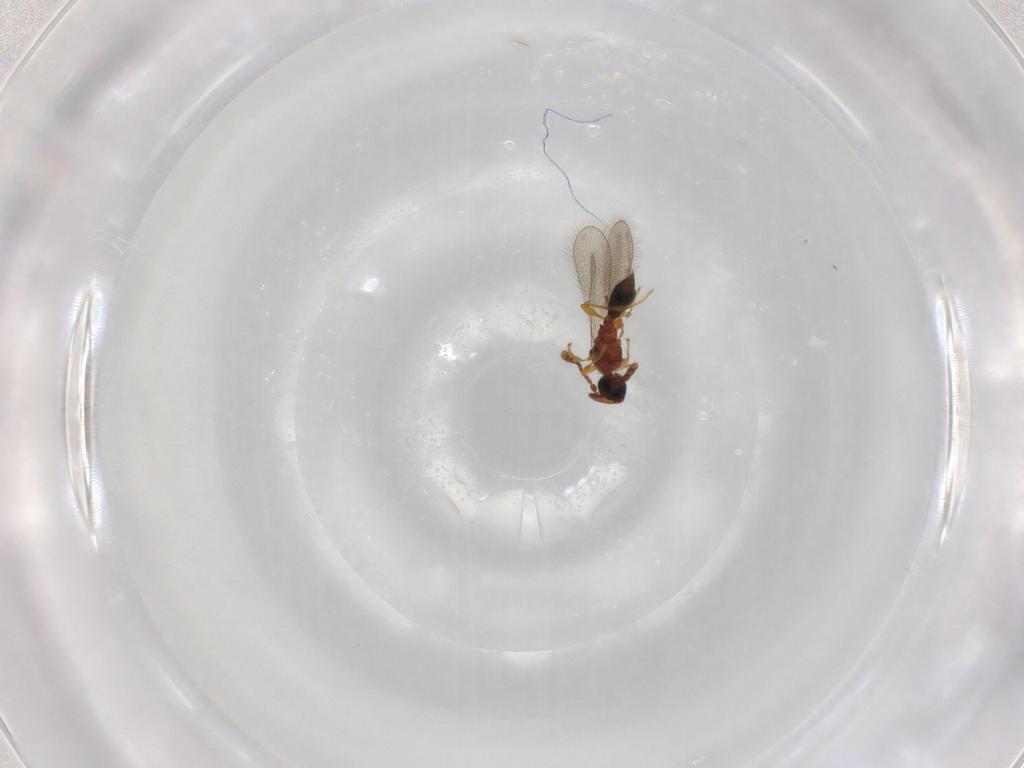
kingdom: Animalia
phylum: Arthropoda
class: Insecta
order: Hymenoptera
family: Diapriidae
